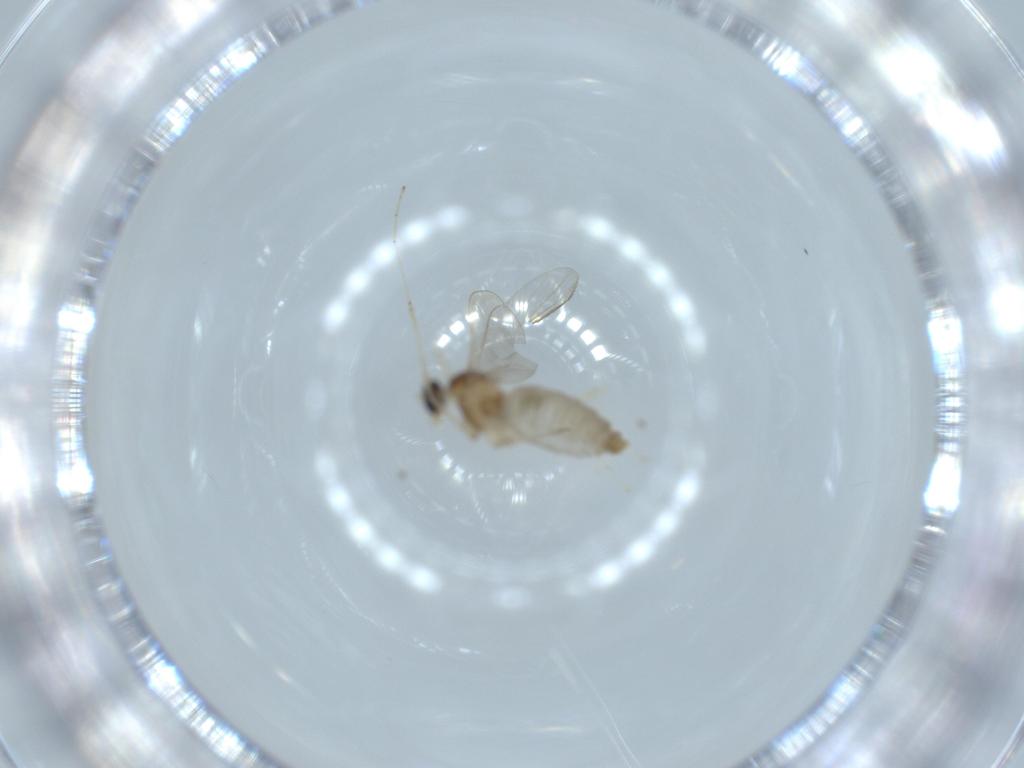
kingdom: Animalia
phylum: Arthropoda
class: Insecta
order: Diptera
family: Cecidomyiidae
